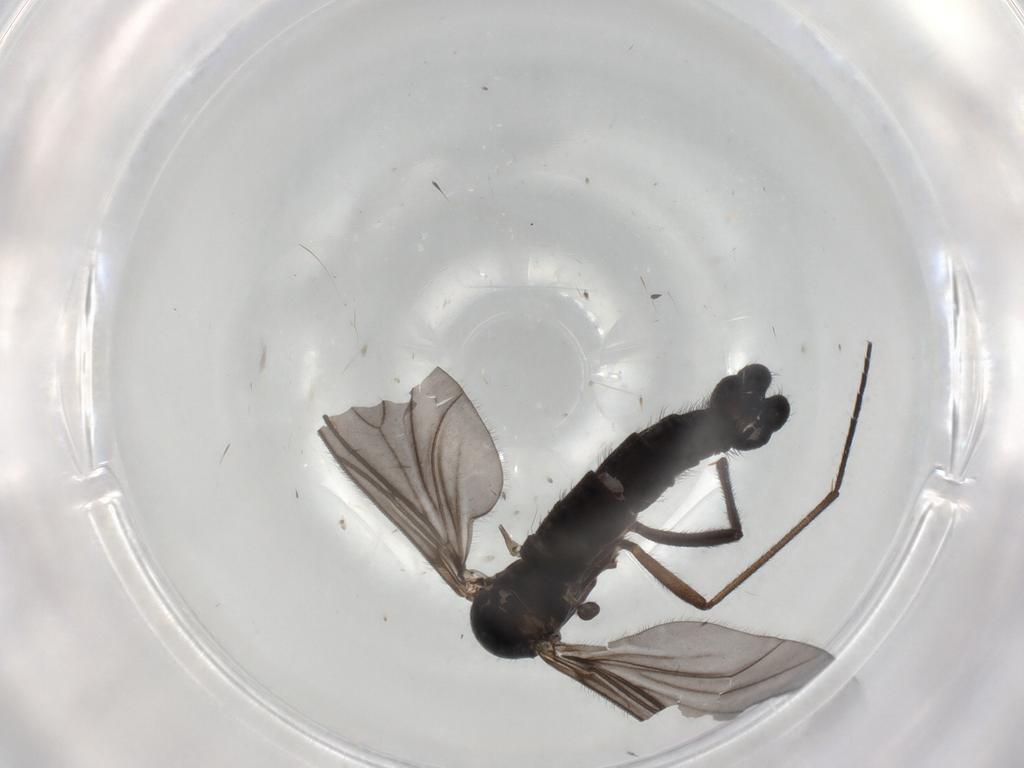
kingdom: Animalia
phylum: Arthropoda
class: Insecta
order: Diptera
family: Sciaridae
